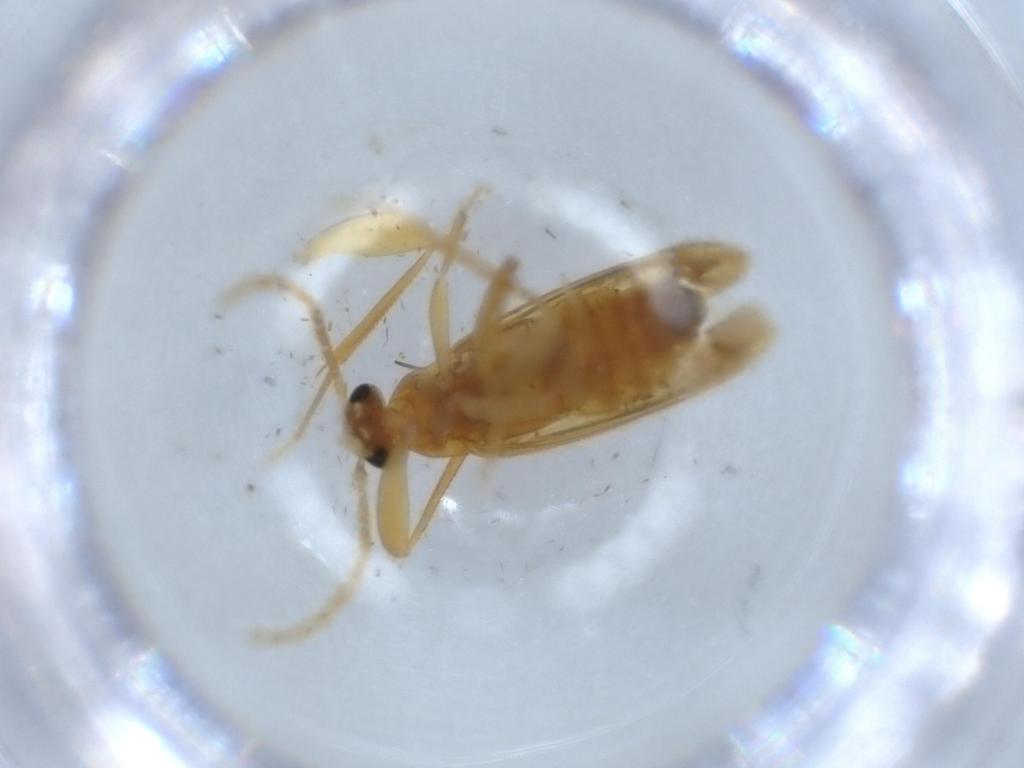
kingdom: Animalia
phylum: Arthropoda
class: Insecta
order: Coleoptera
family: Scraptiidae
